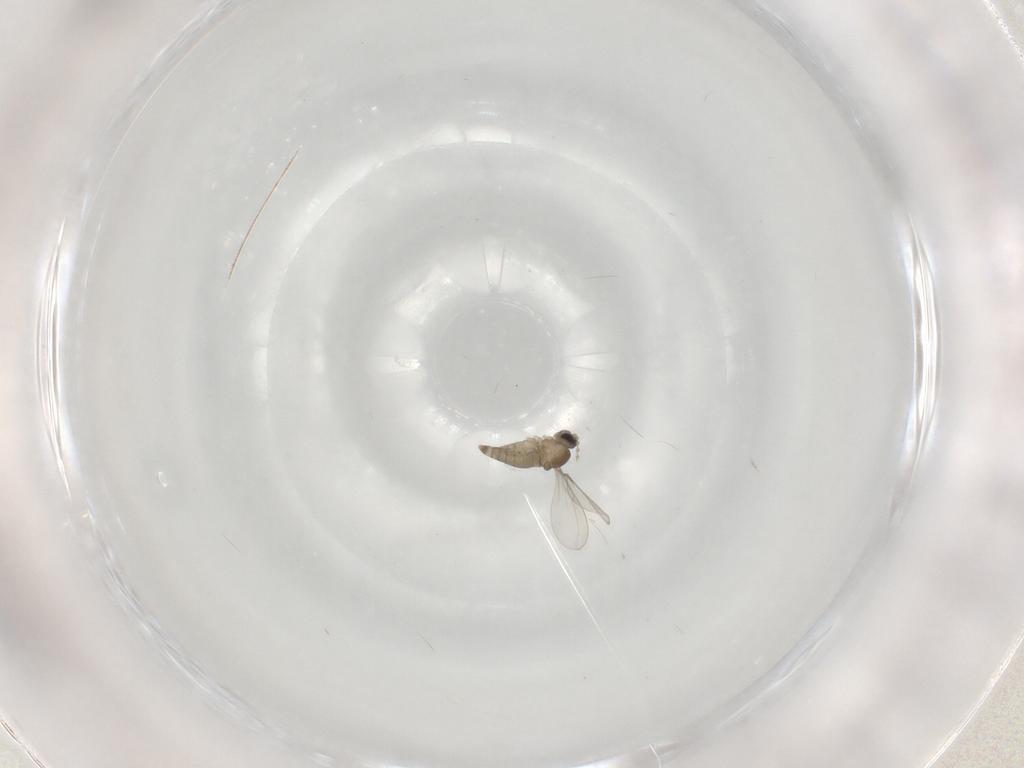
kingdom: Animalia
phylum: Arthropoda
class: Insecta
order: Diptera
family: Cecidomyiidae
